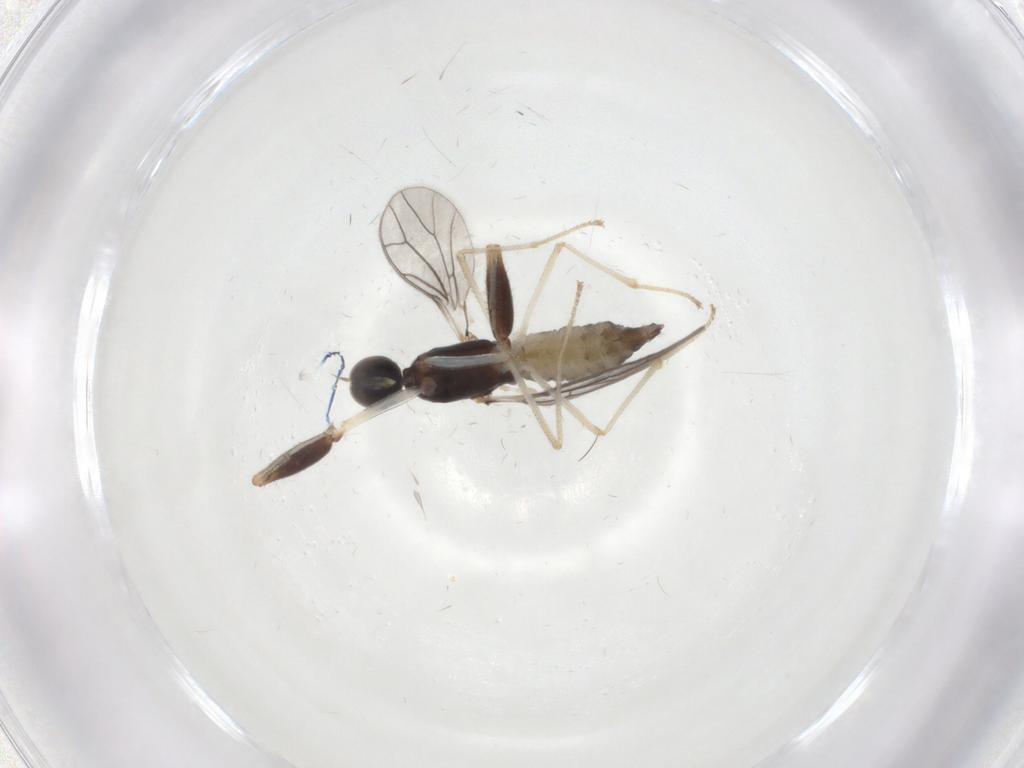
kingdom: Animalia
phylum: Arthropoda
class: Insecta
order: Diptera
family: Empididae
